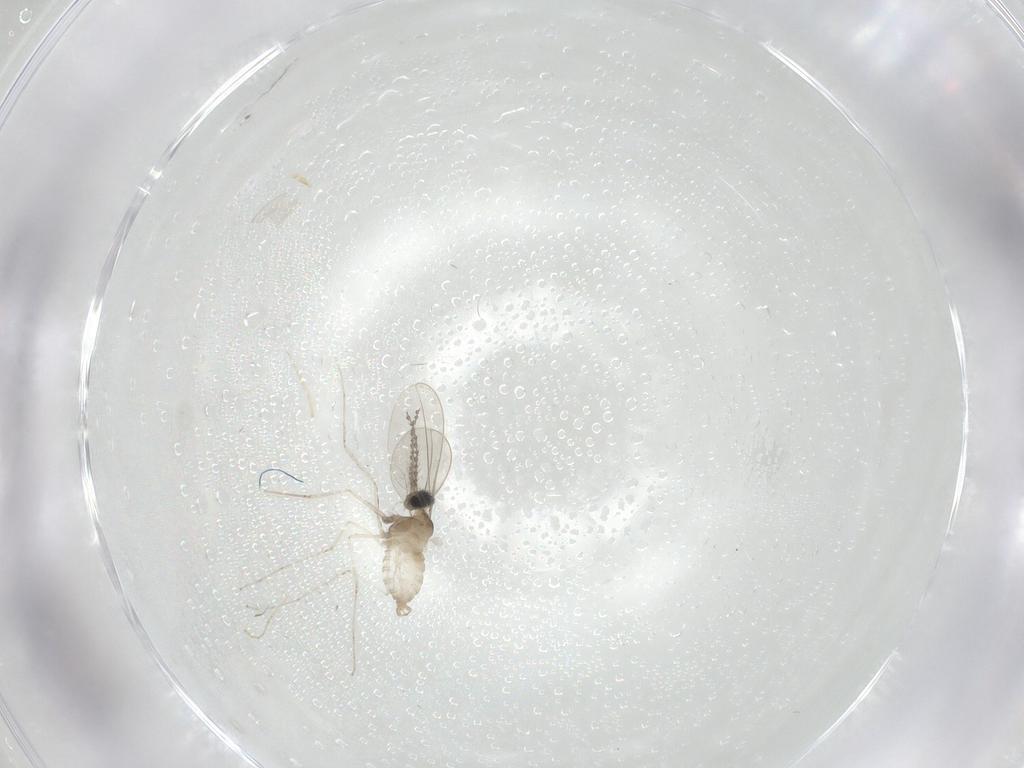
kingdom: Animalia
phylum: Arthropoda
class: Insecta
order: Diptera
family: Cecidomyiidae
